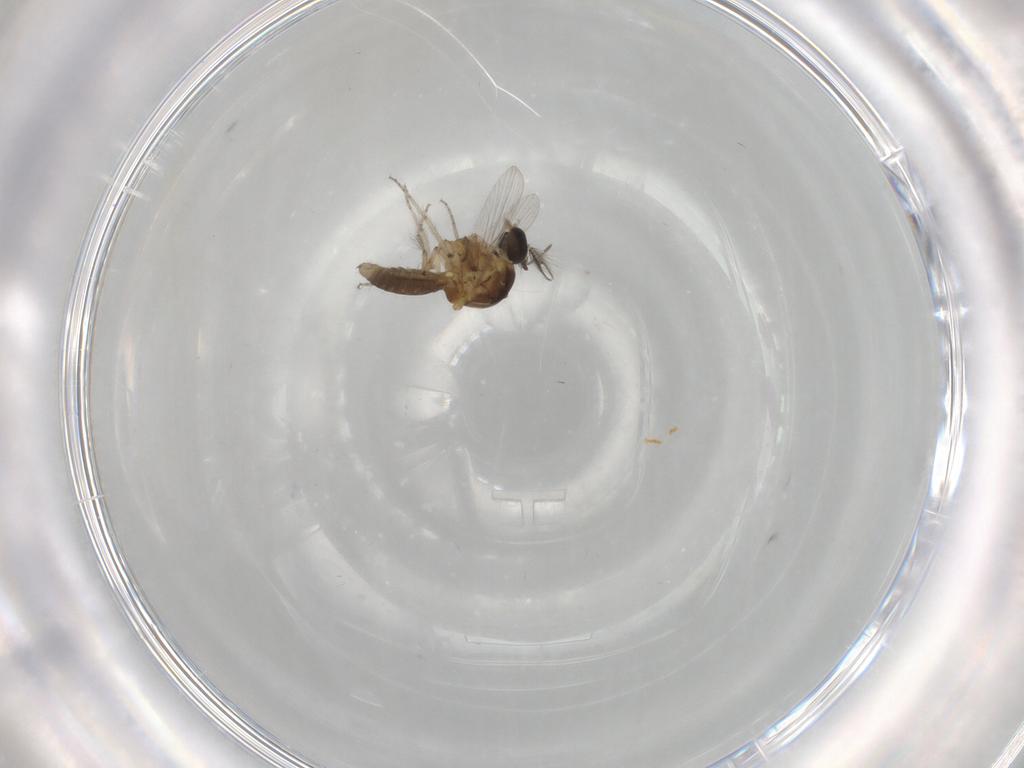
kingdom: Animalia
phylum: Arthropoda
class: Insecta
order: Diptera
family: Ceratopogonidae
